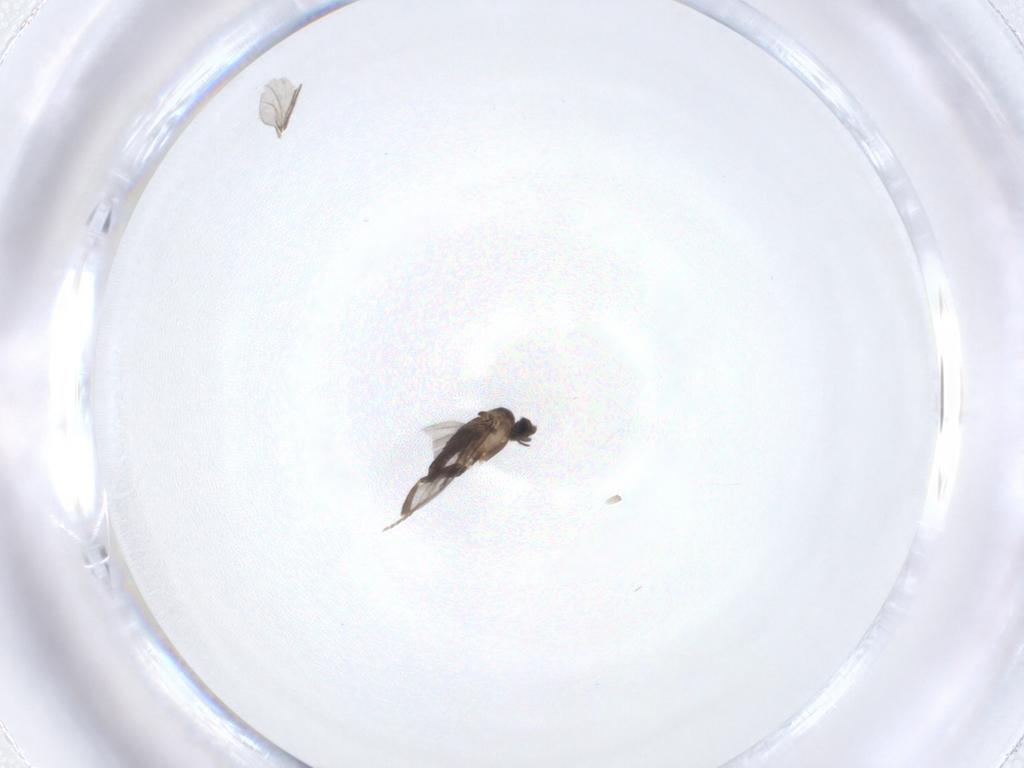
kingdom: Animalia
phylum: Arthropoda
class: Insecta
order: Diptera
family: Phoridae
